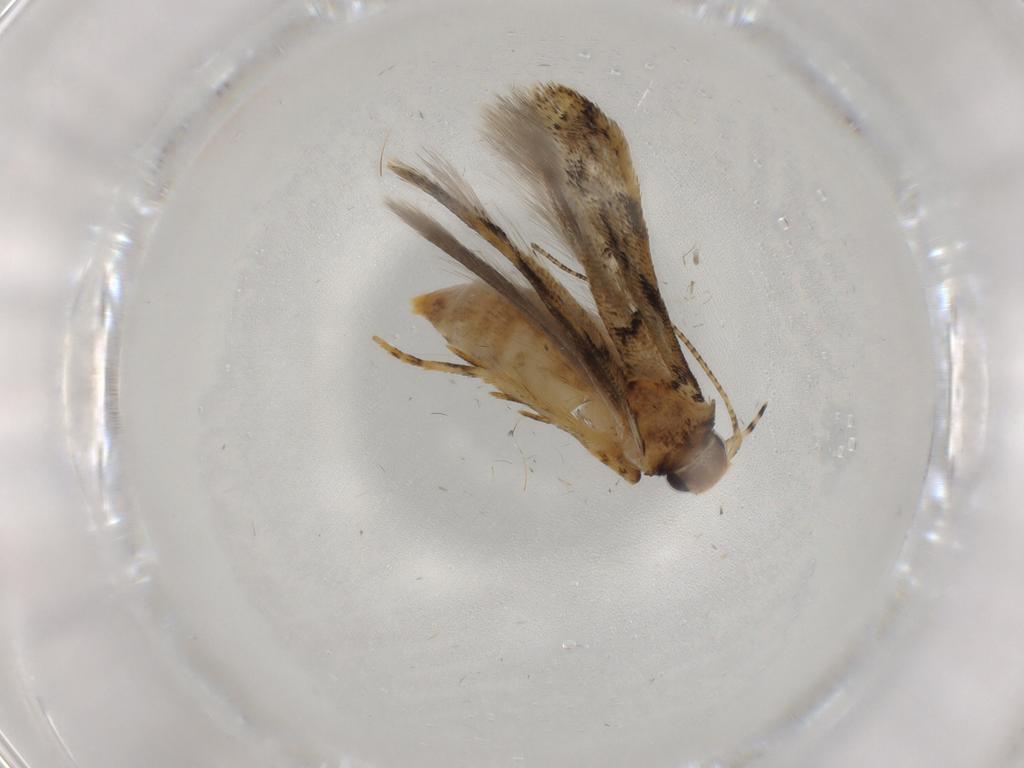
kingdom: Animalia
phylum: Arthropoda
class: Insecta
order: Lepidoptera
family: Gelechiidae
